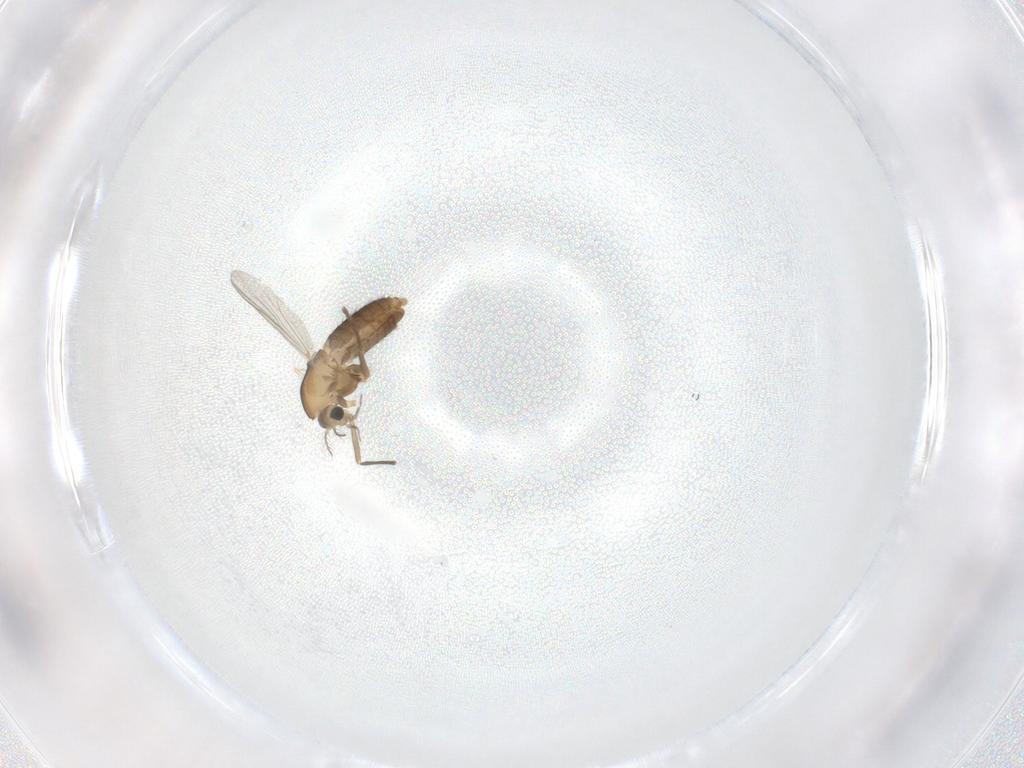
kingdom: Animalia
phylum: Arthropoda
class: Insecta
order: Diptera
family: Chironomidae
